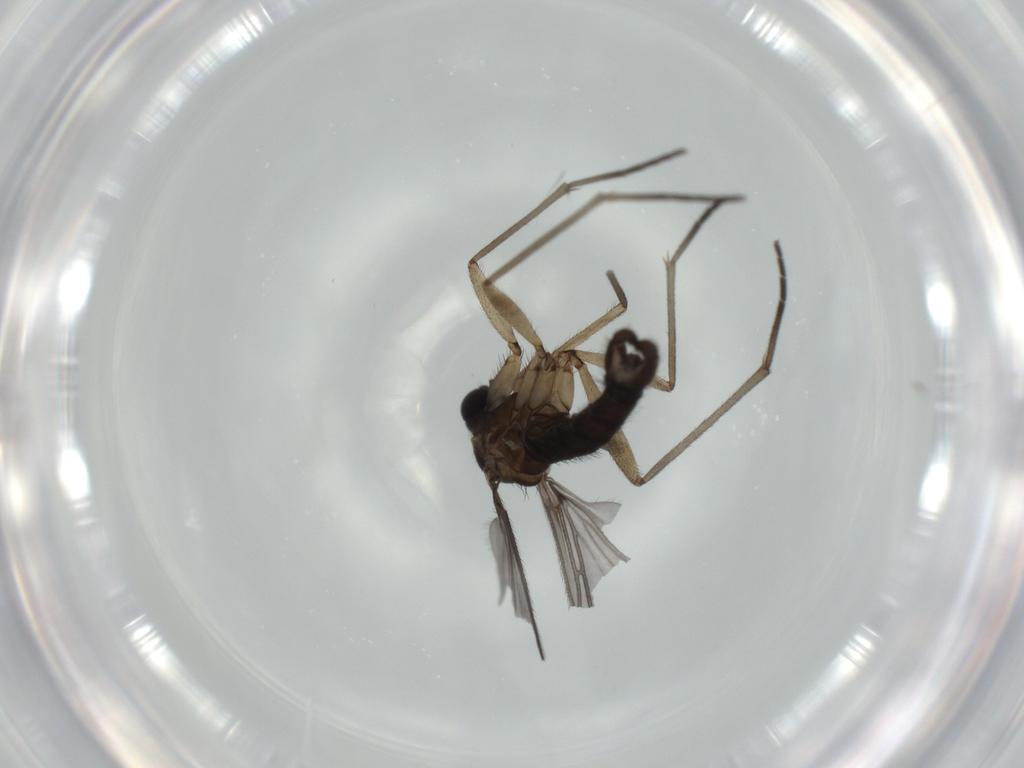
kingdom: Animalia
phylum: Arthropoda
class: Insecta
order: Diptera
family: Sciaridae
